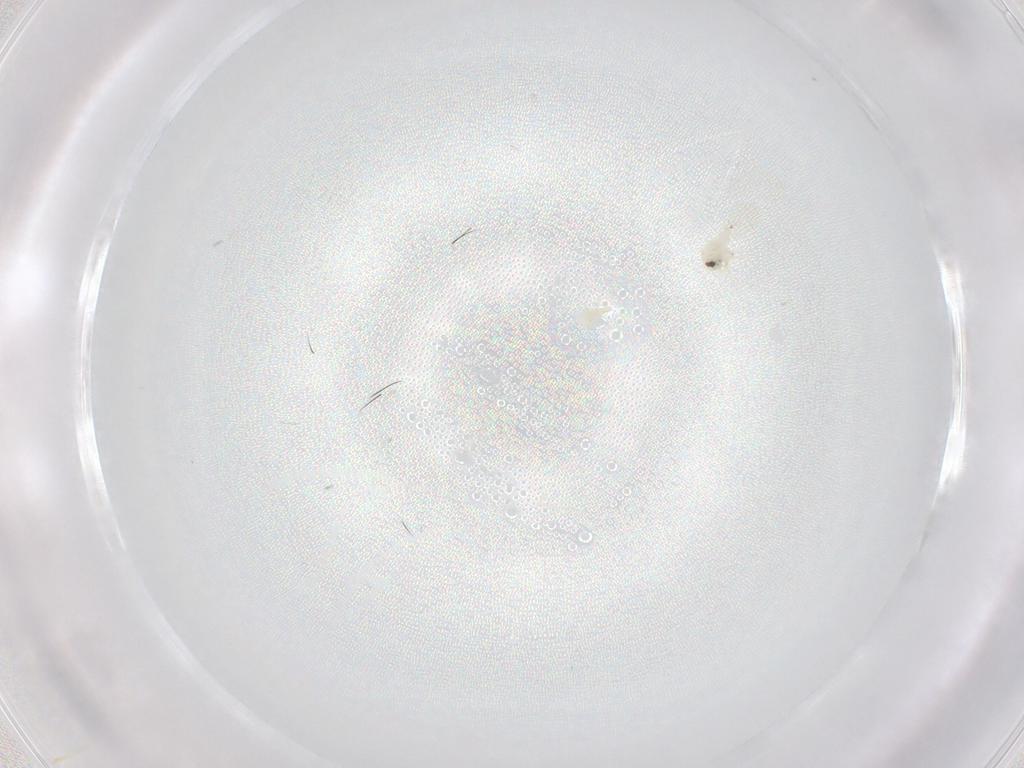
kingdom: Animalia
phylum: Arthropoda
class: Insecta
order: Hemiptera
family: Aleyrodidae
